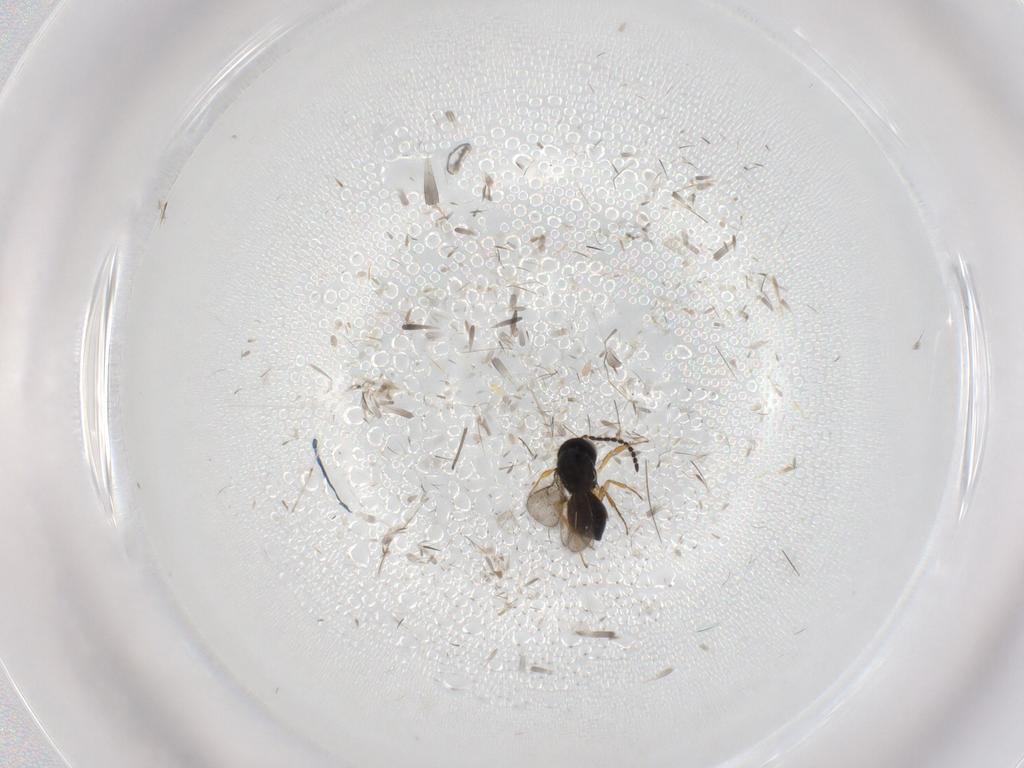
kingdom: Animalia
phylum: Arthropoda
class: Insecta
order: Hymenoptera
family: Scelionidae
